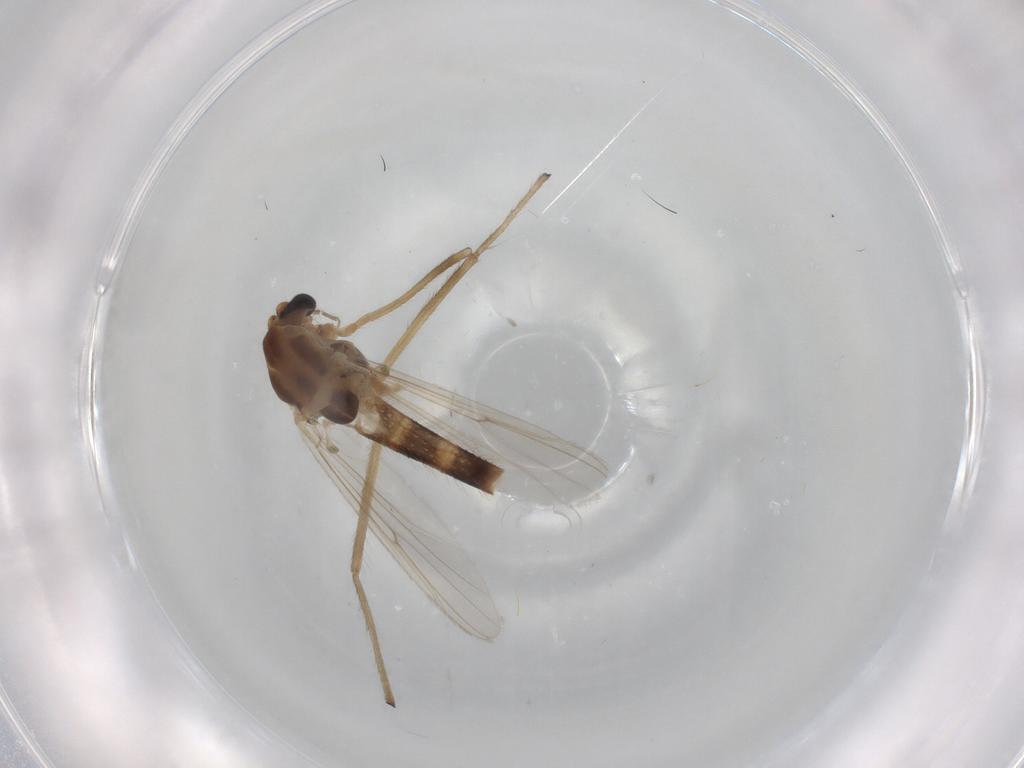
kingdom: Animalia
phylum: Arthropoda
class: Insecta
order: Diptera
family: Chironomidae
